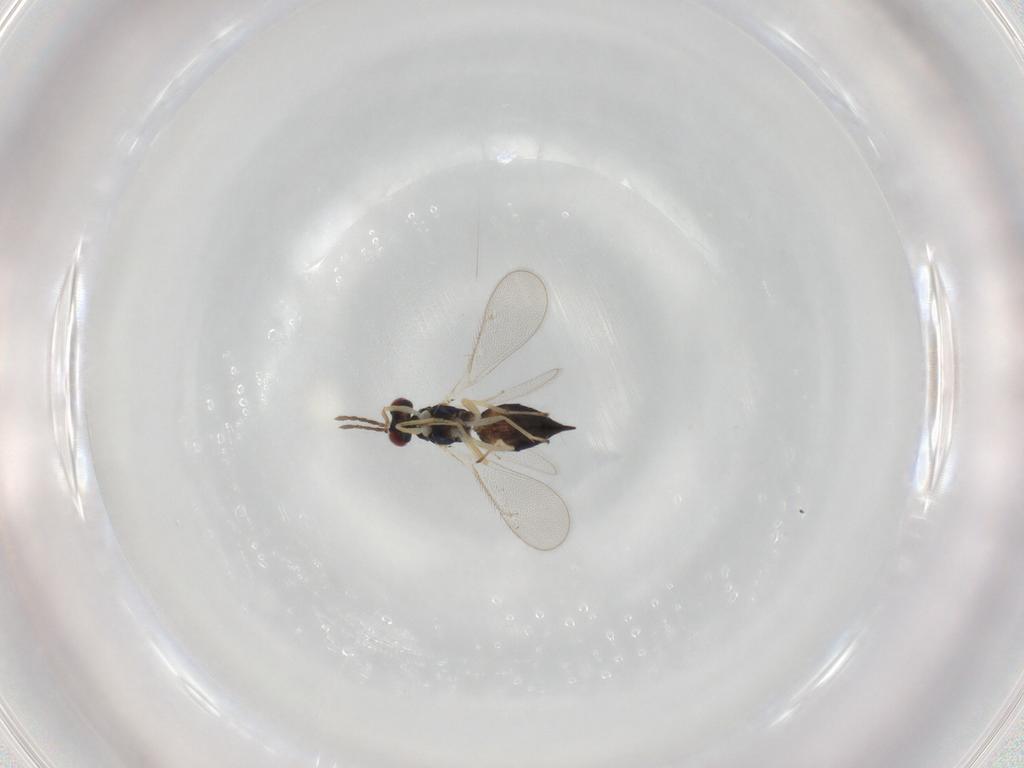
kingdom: Animalia
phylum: Arthropoda
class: Insecta
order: Hymenoptera
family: Eulophidae
